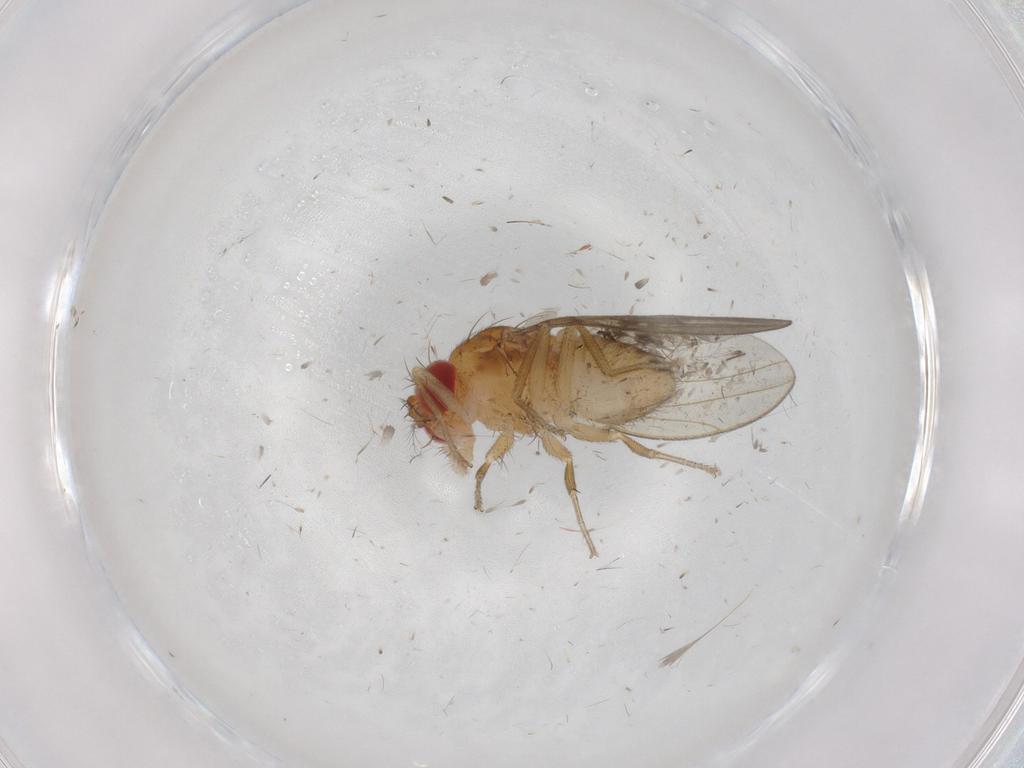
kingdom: Animalia
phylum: Arthropoda
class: Insecta
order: Diptera
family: Drosophilidae
